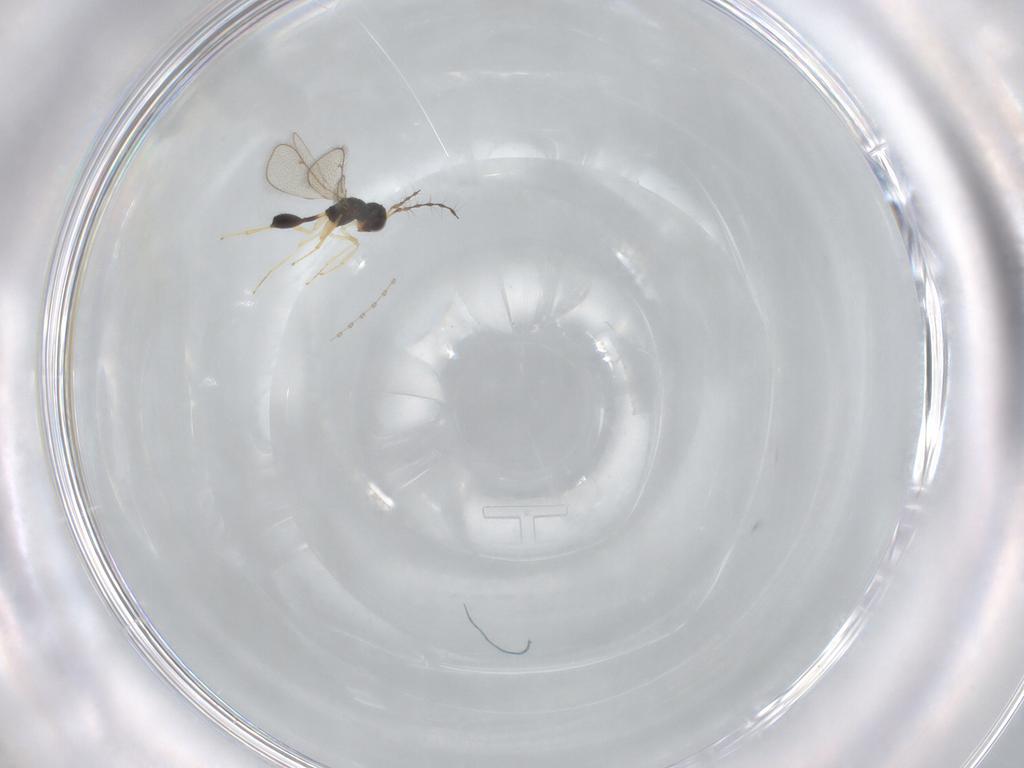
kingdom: Animalia
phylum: Arthropoda
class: Insecta
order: Hymenoptera
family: Diparidae
